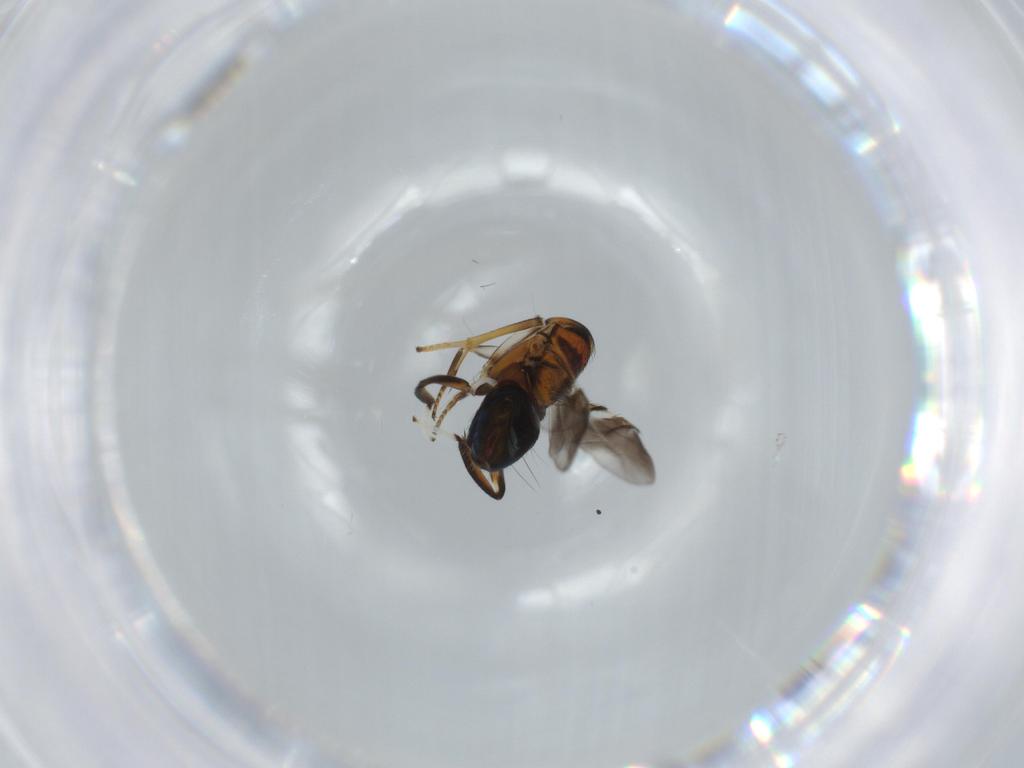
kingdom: Animalia
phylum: Arthropoda
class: Insecta
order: Hymenoptera
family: Encyrtidae
